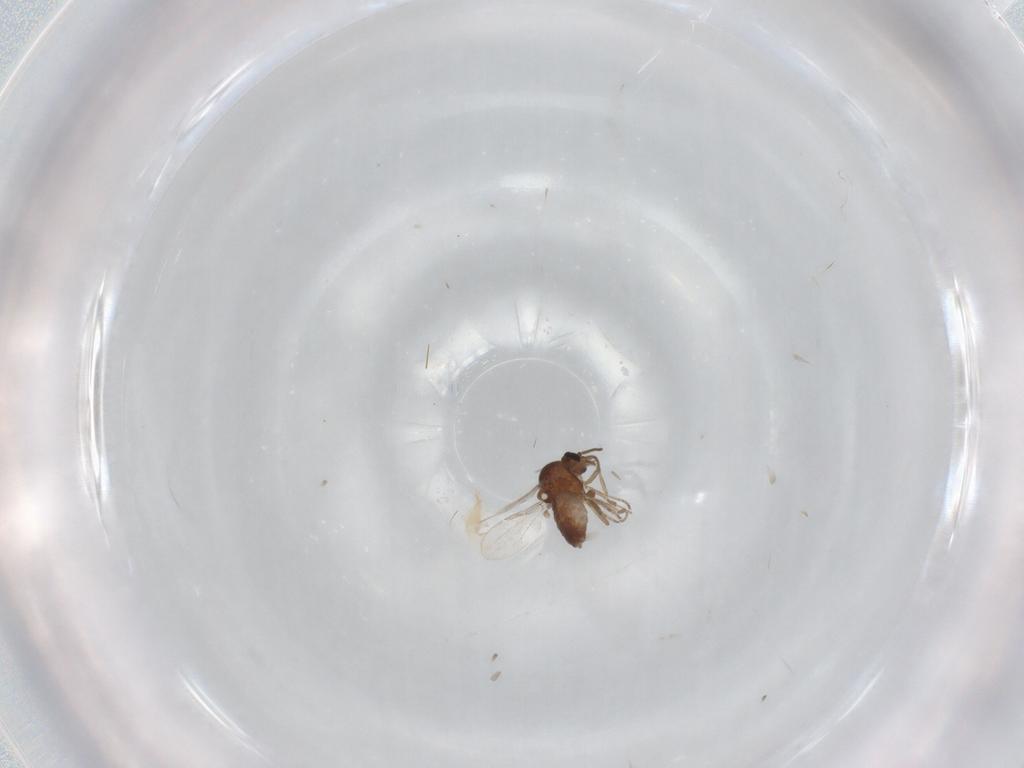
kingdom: Animalia
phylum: Arthropoda
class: Insecta
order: Diptera
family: Ceratopogonidae
